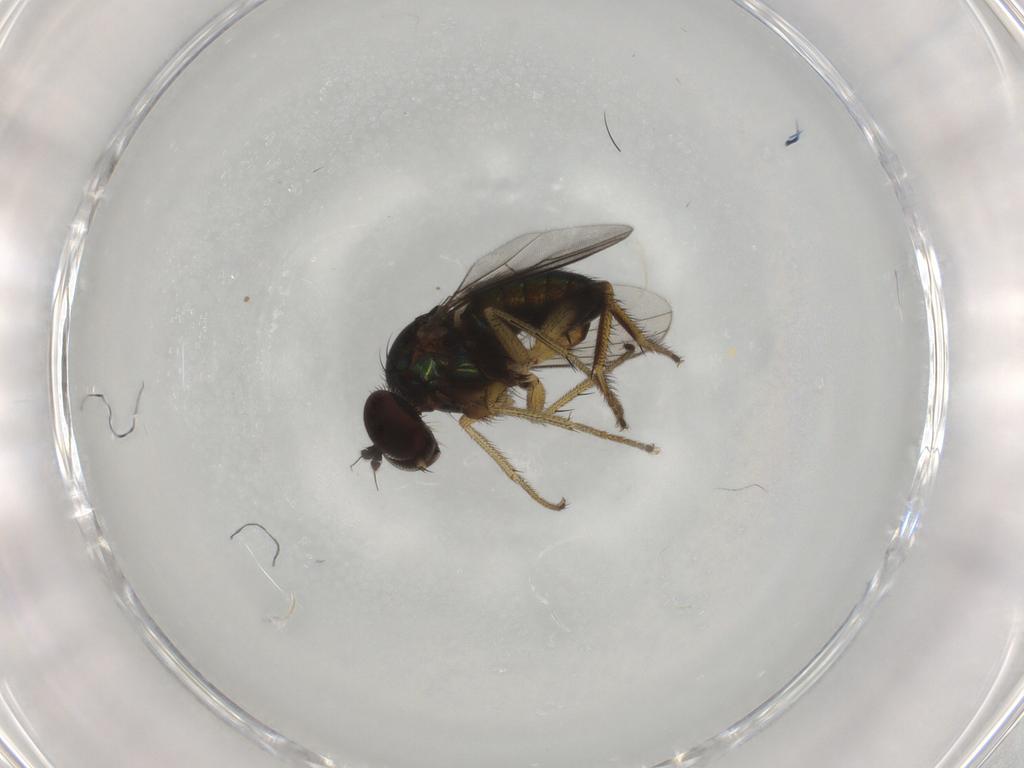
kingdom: Animalia
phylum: Arthropoda
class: Insecta
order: Diptera
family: Dolichopodidae
